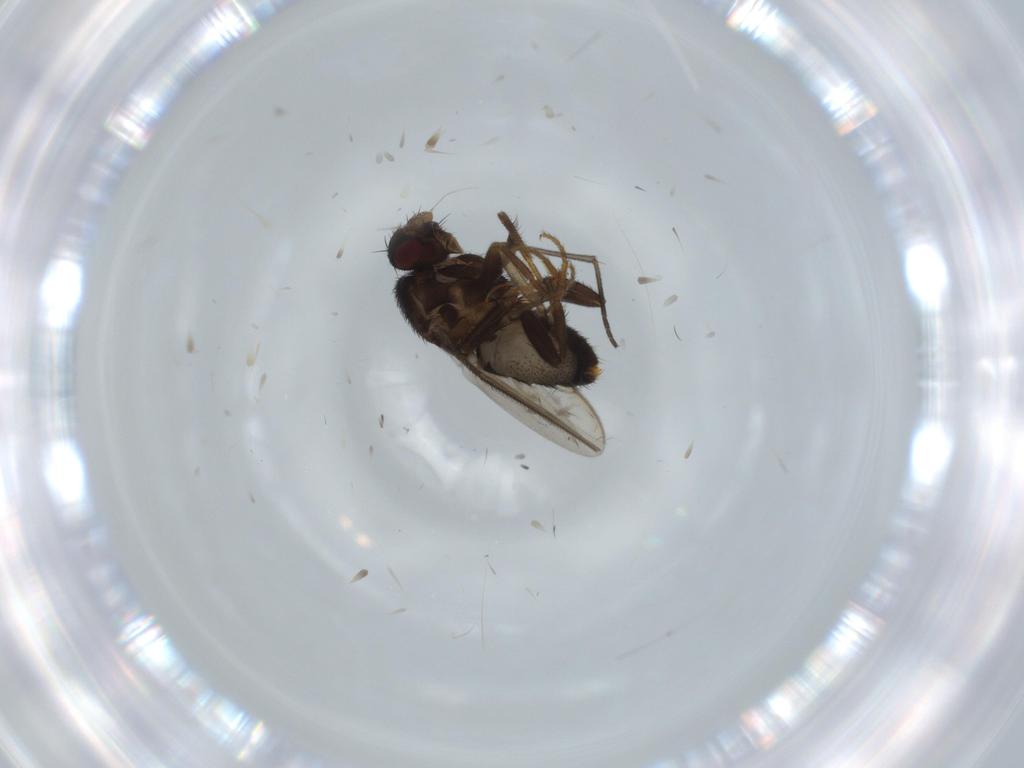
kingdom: Animalia
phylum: Arthropoda
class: Insecta
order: Diptera
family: Sphaeroceridae
